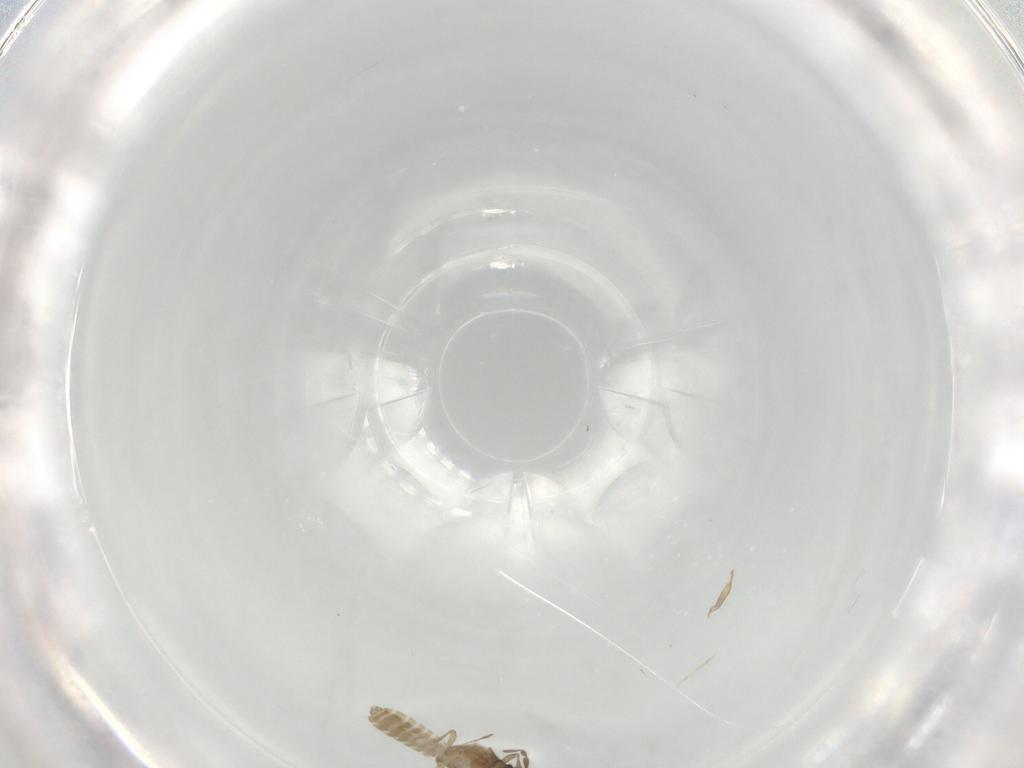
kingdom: Animalia
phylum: Arthropoda
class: Insecta
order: Hemiptera
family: Enicocephalidae
